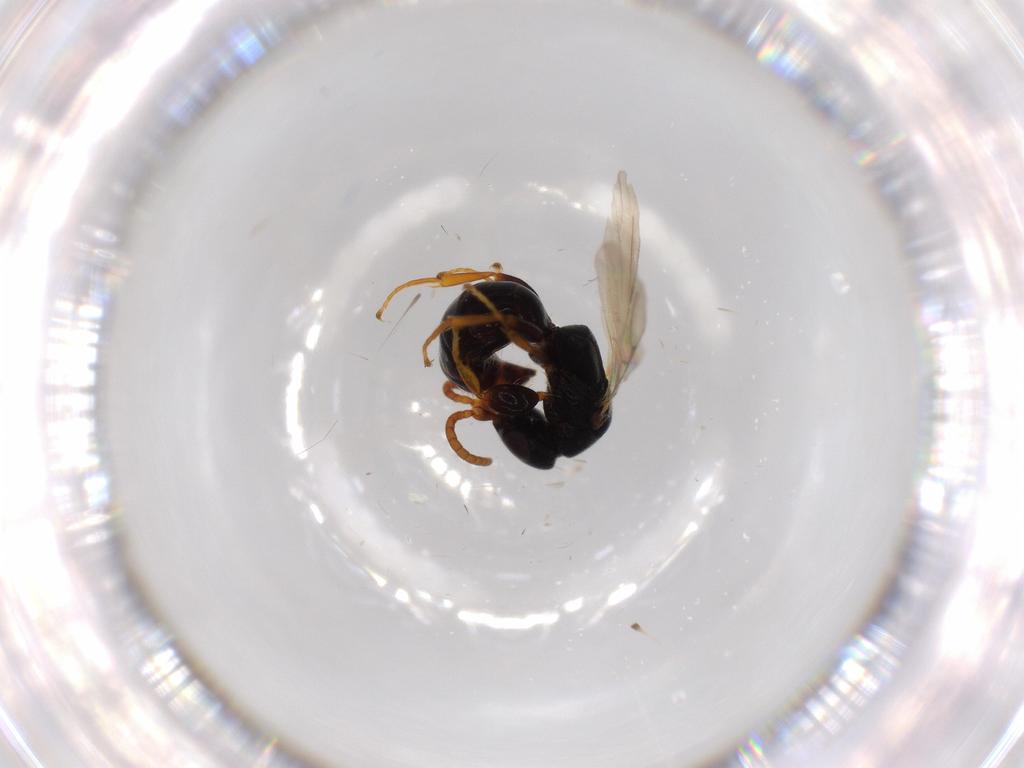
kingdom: Animalia
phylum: Arthropoda
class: Insecta
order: Hymenoptera
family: Bethylidae
